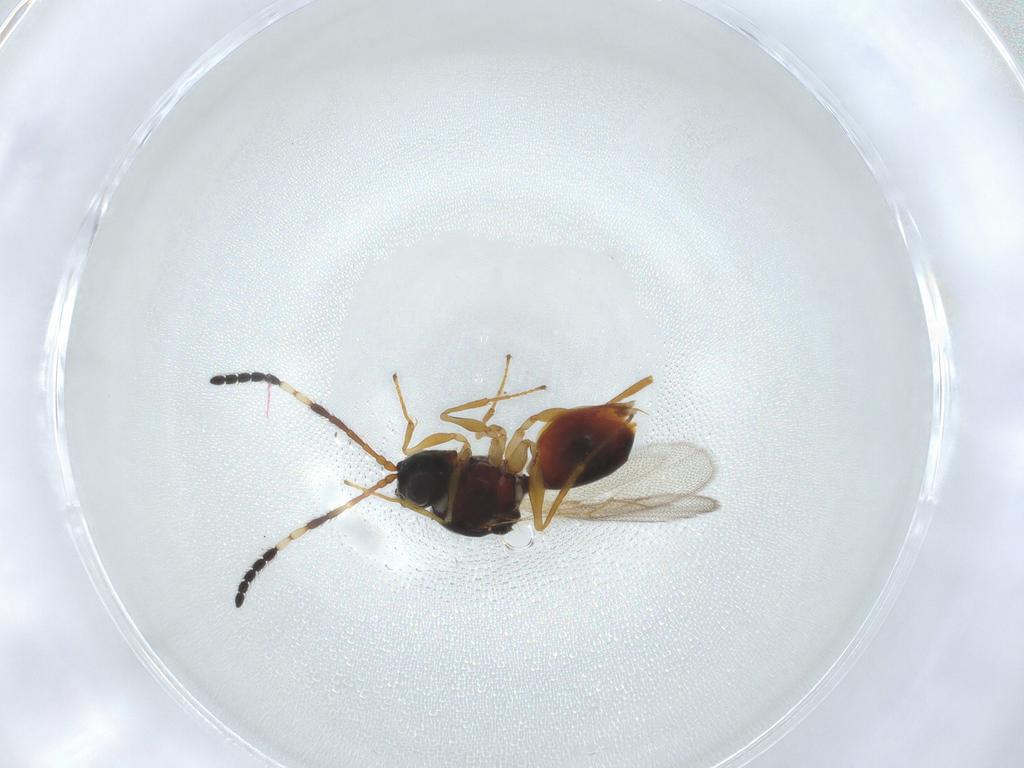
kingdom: Animalia
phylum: Arthropoda
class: Insecta
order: Hymenoptera
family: Figitidae
